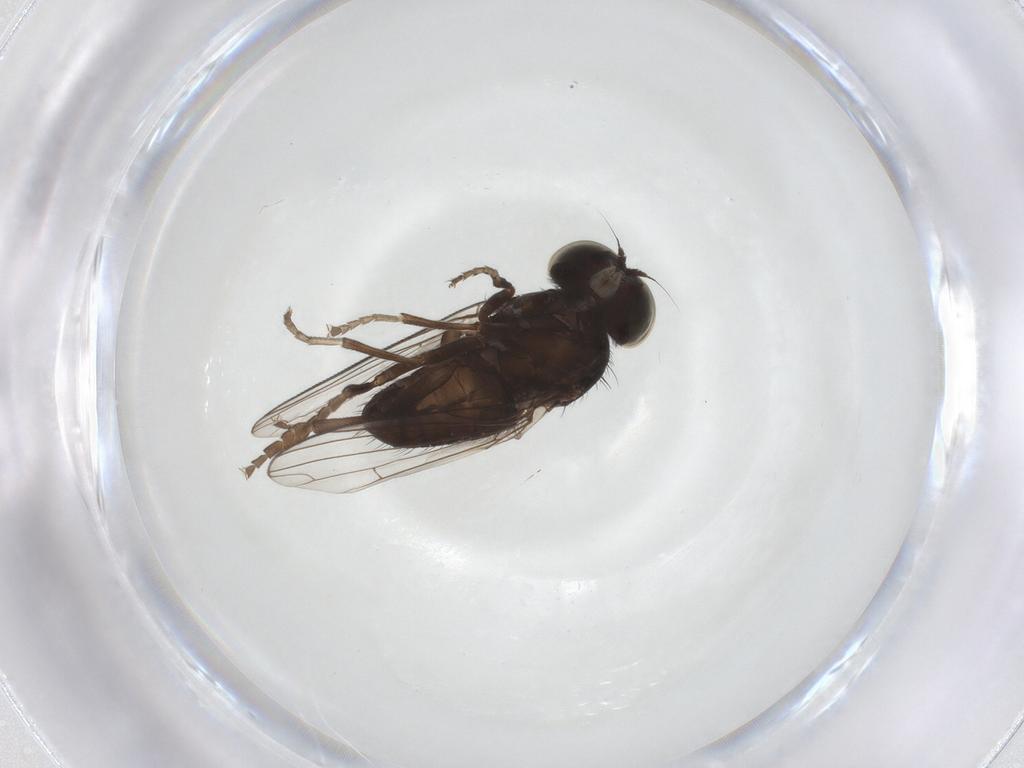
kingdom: Animalia
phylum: Arthropoda
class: Insecta
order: Diptera
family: Platypezidae
